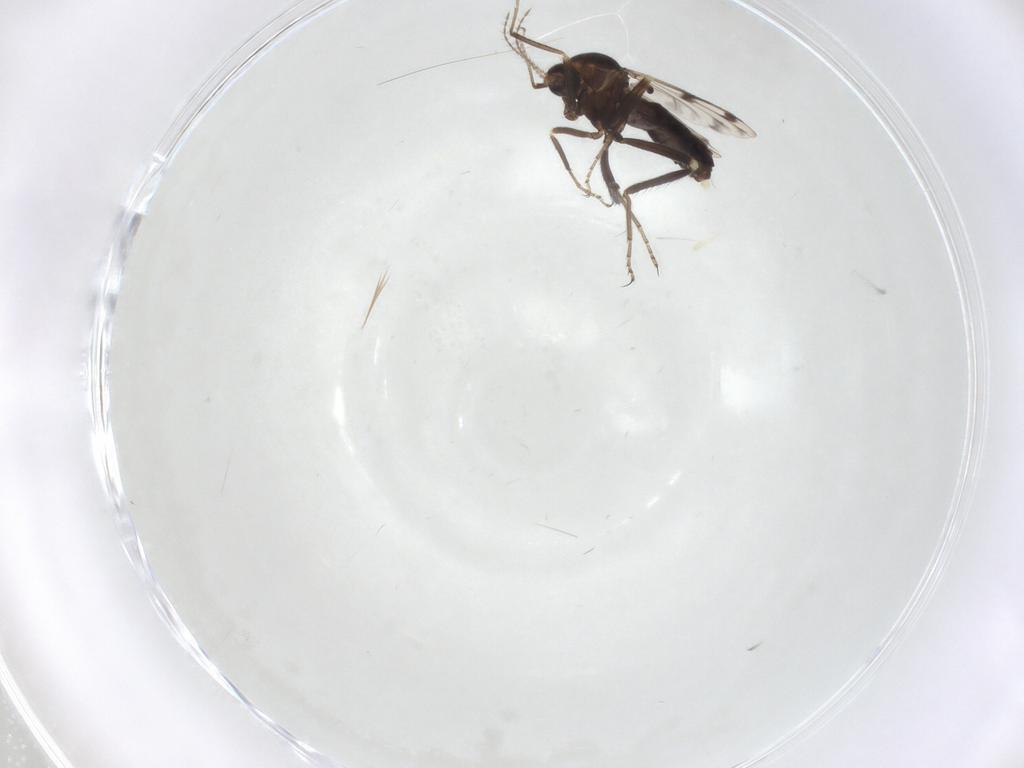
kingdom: Animalia
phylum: Arthropoda
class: Insecta
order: Diptera
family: Ceratopogonidae
